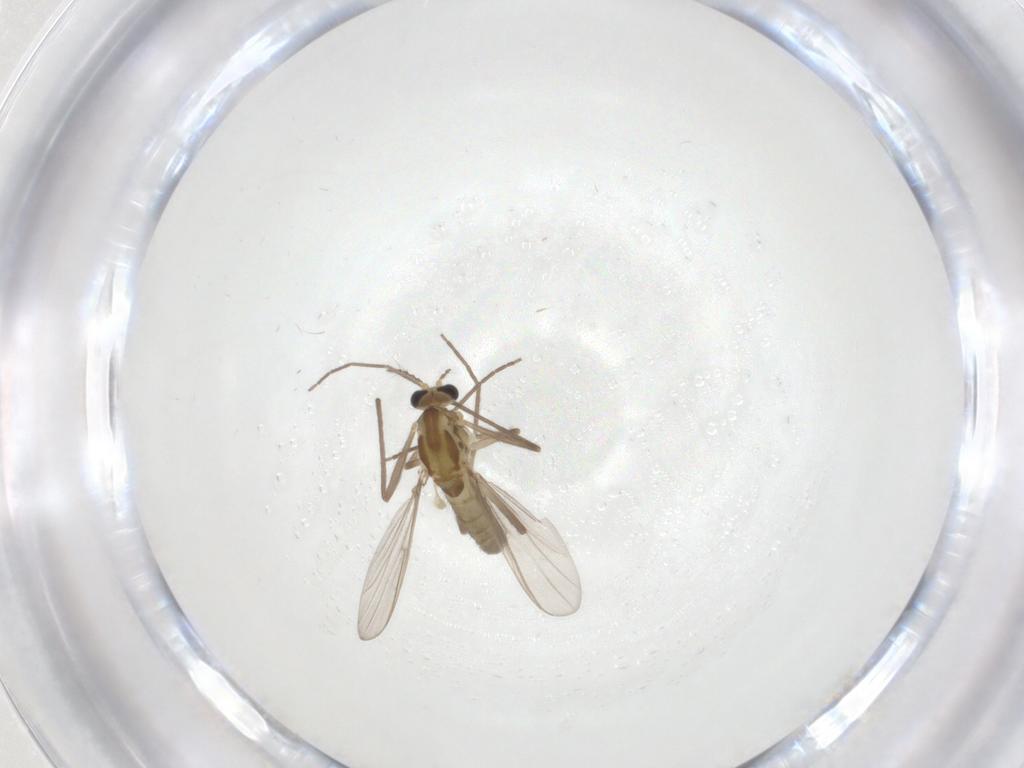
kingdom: Animalia
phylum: Arthropoda
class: Insecta
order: Diptera
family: Chironomidae
